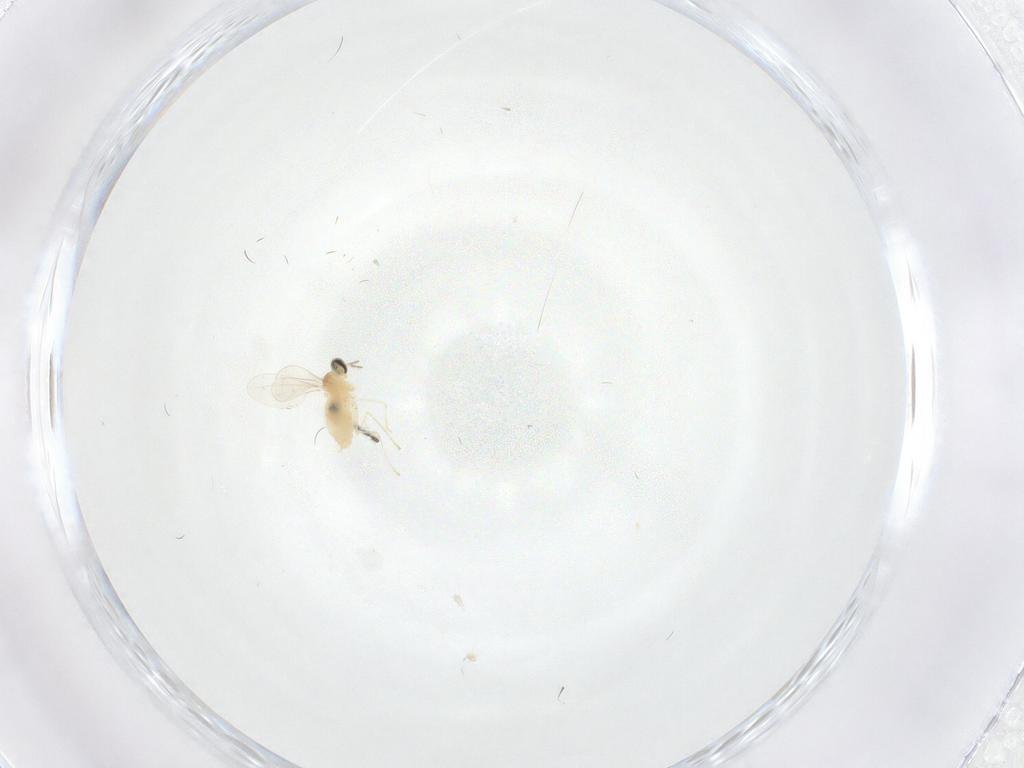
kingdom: Animalia
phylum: Arthropoda
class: Insecta
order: Diptera
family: Cecidomyiidae
